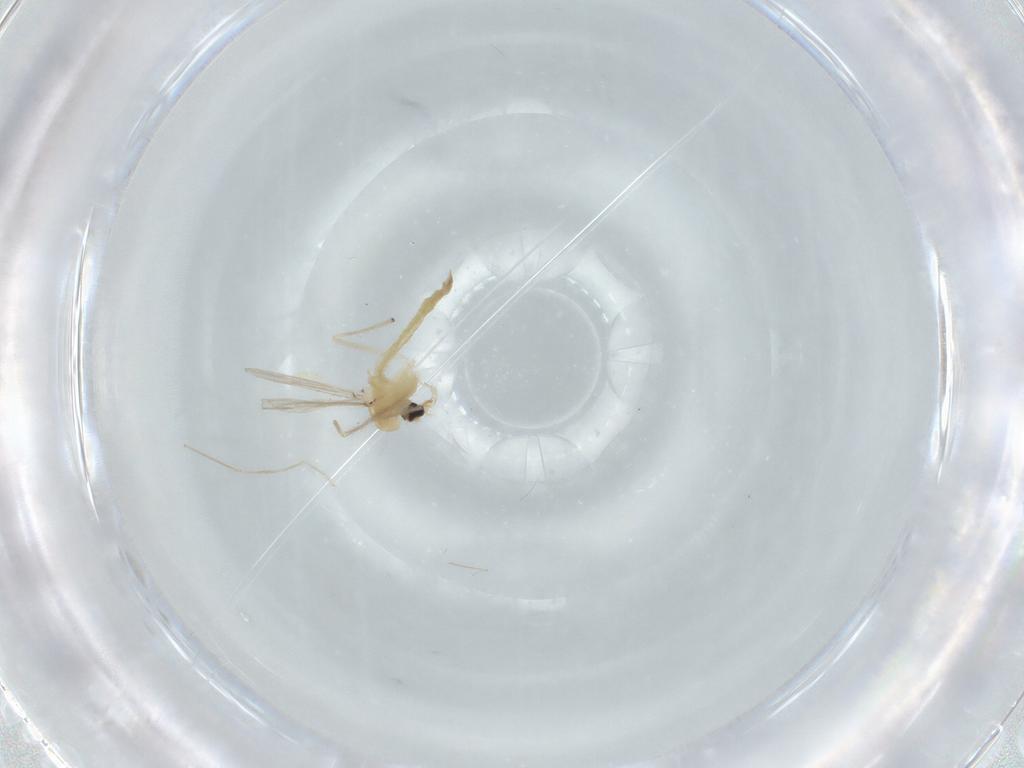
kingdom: Animalia
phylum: Arthropoda
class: Insecta
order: Diptera
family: Chironomidae
